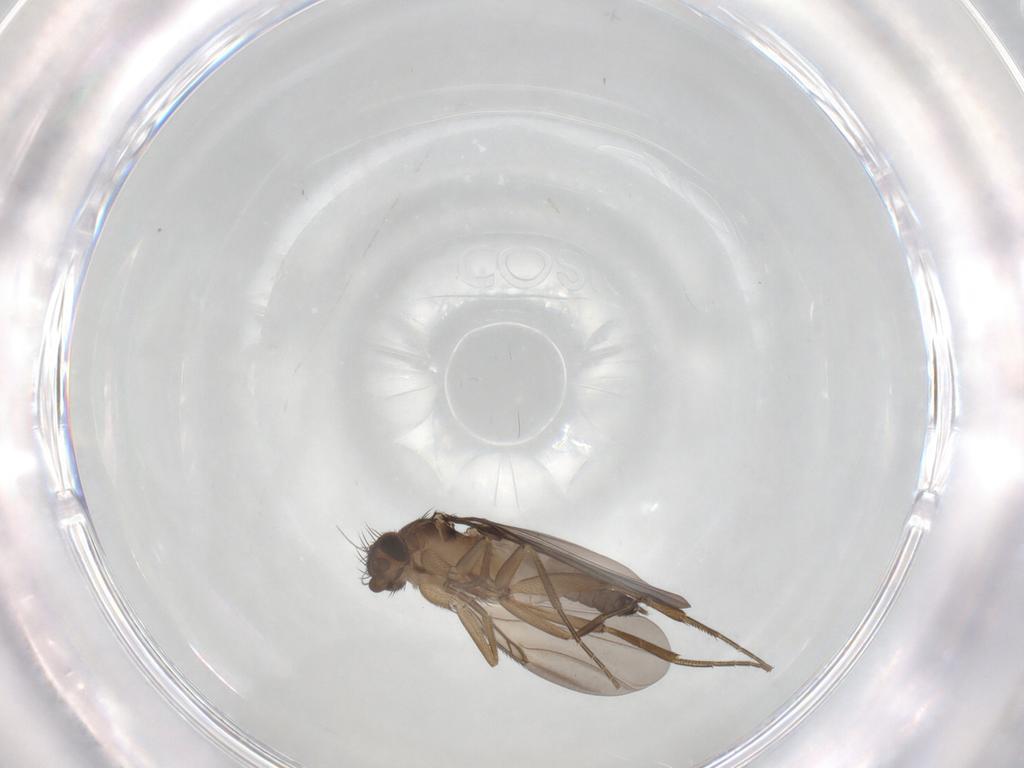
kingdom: Animalia
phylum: Arthropoda
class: Insecta
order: Diptera
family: Phoridae
